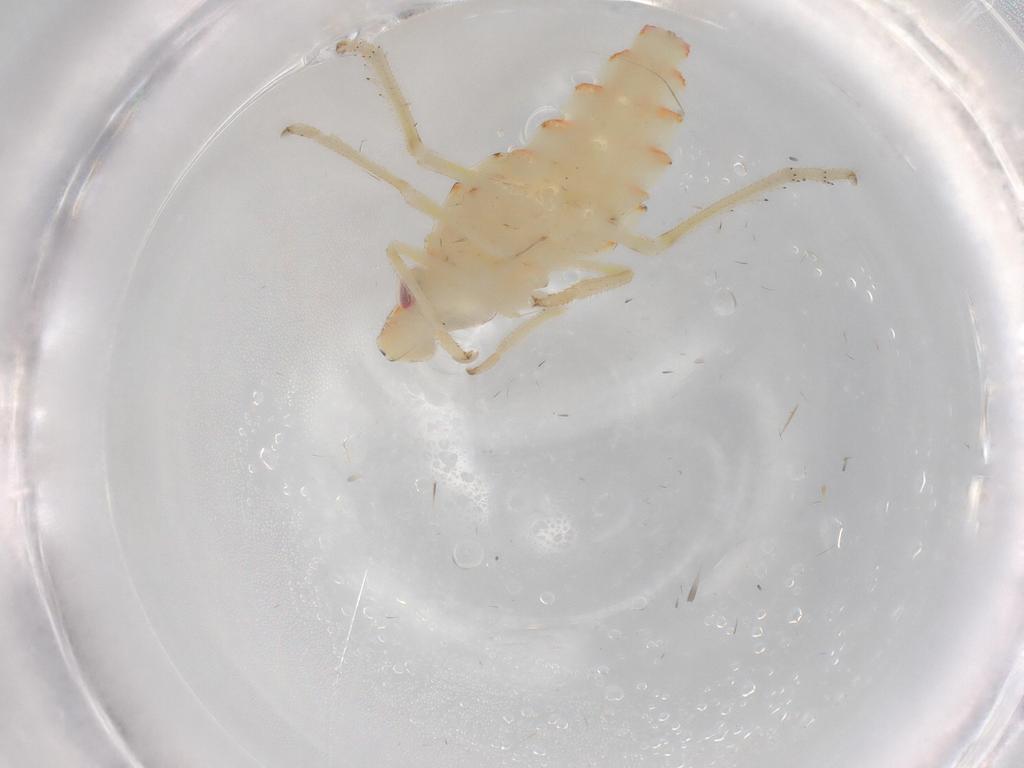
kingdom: Animalia
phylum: Arthropoda
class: Insecta
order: Hemiptera
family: Tropiduchidae
